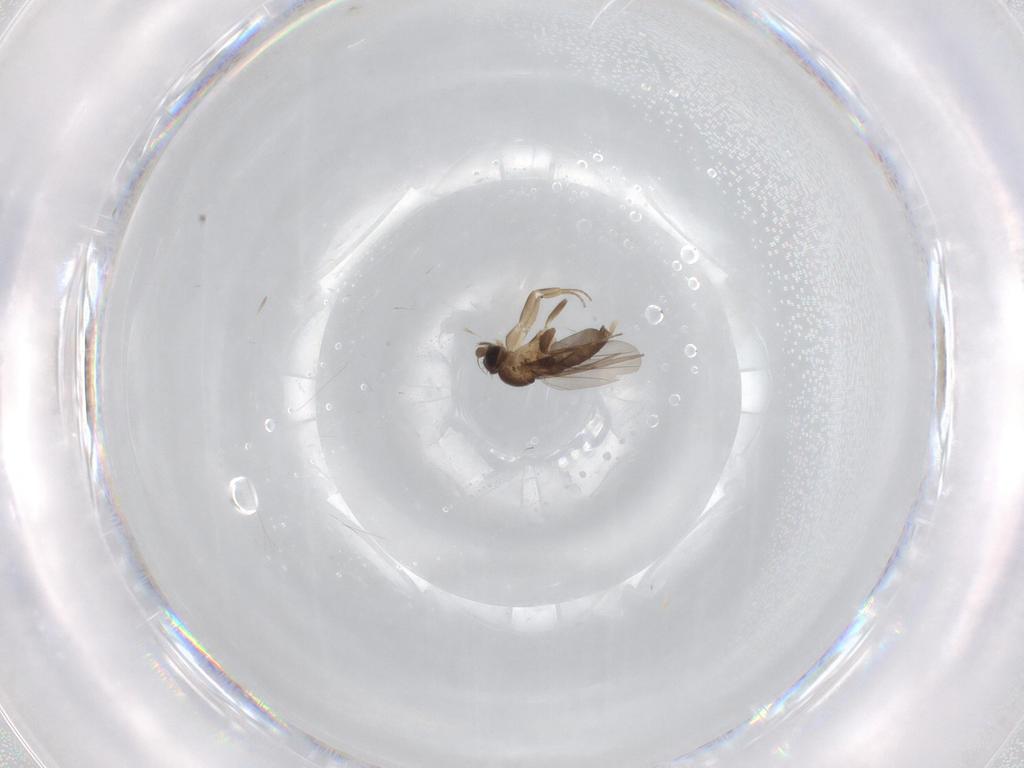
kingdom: Animalia
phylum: Arthropoda
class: Insecta
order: Diptera
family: Phoridae
